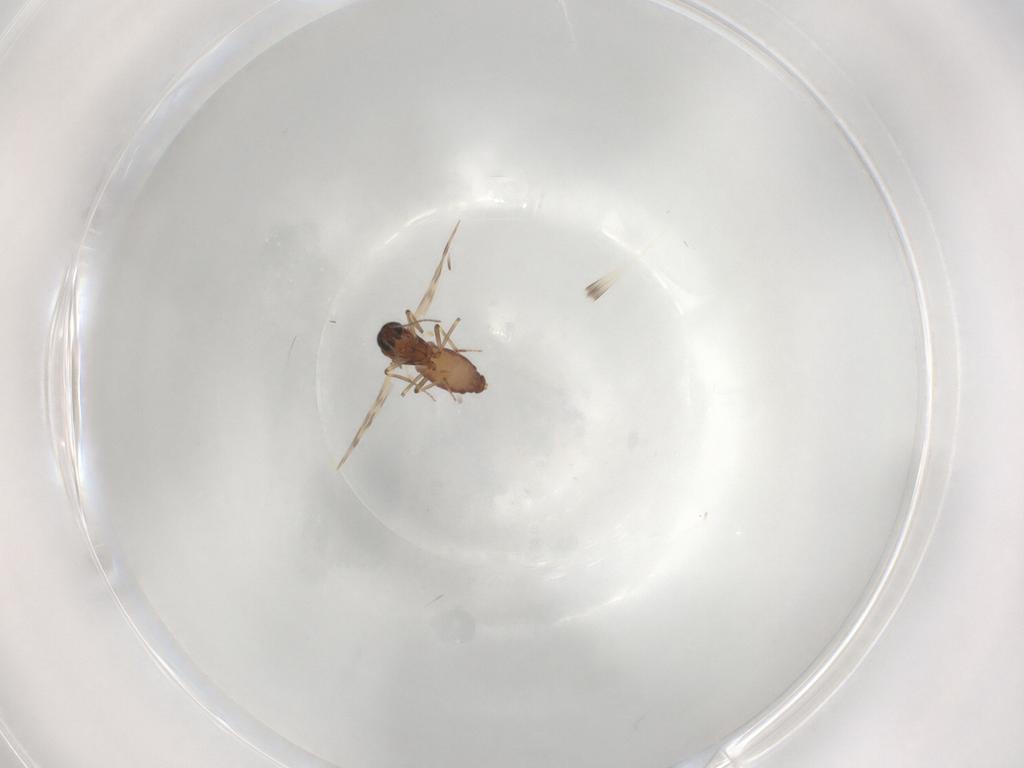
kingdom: Animalia
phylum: Arthropoda
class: Insecta
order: Diptera
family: Ceratopogonidae
